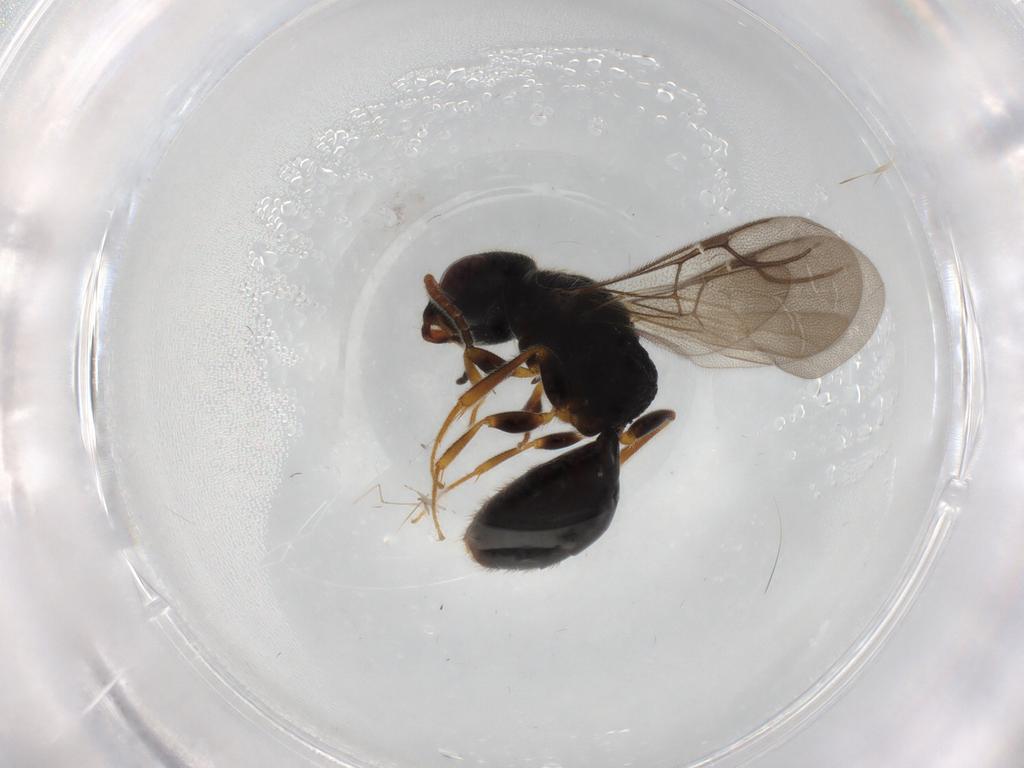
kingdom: Animalia
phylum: Arthropoda
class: Insecta
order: Hymenoptera
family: Bethylidae
